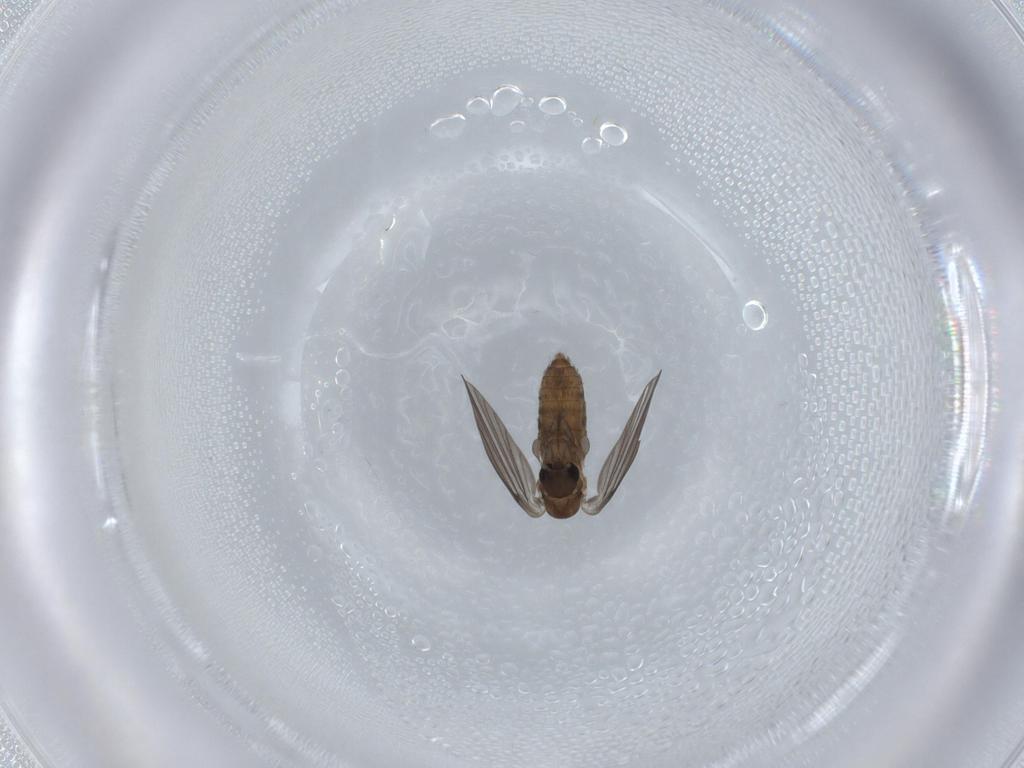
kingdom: Animalia
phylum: Arthropoda
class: Insecta
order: Diptera
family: Psychodidae
